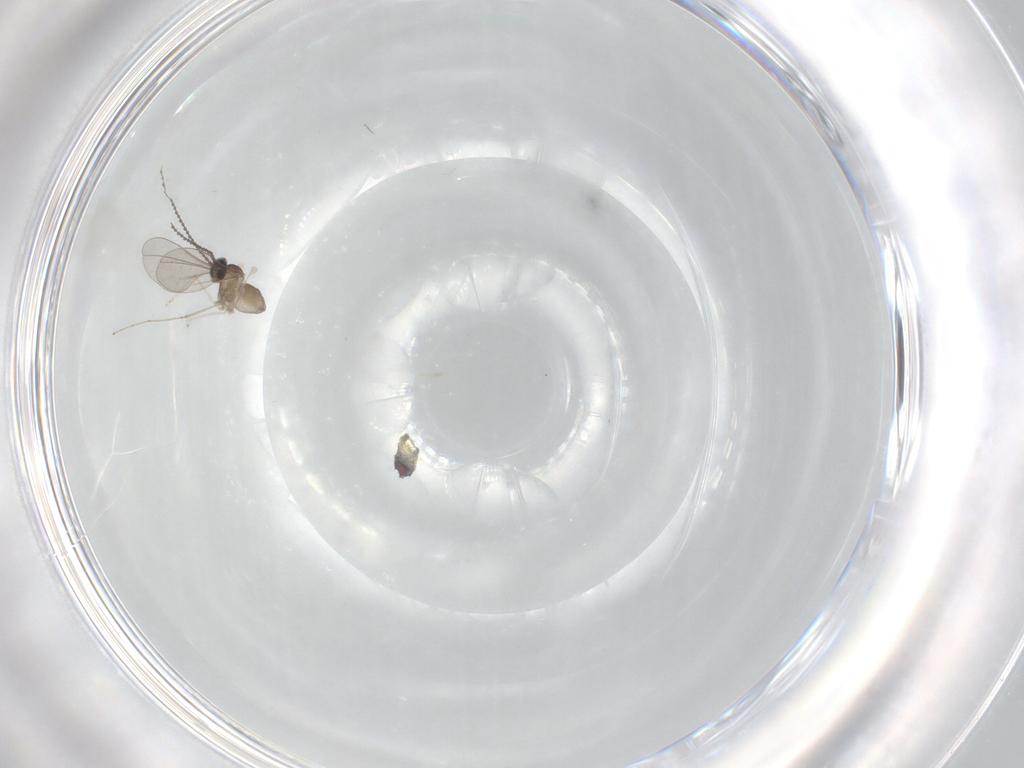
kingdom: Animalia
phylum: Arthropoda
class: Insecta
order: Diptera
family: Cecidomyiidae
